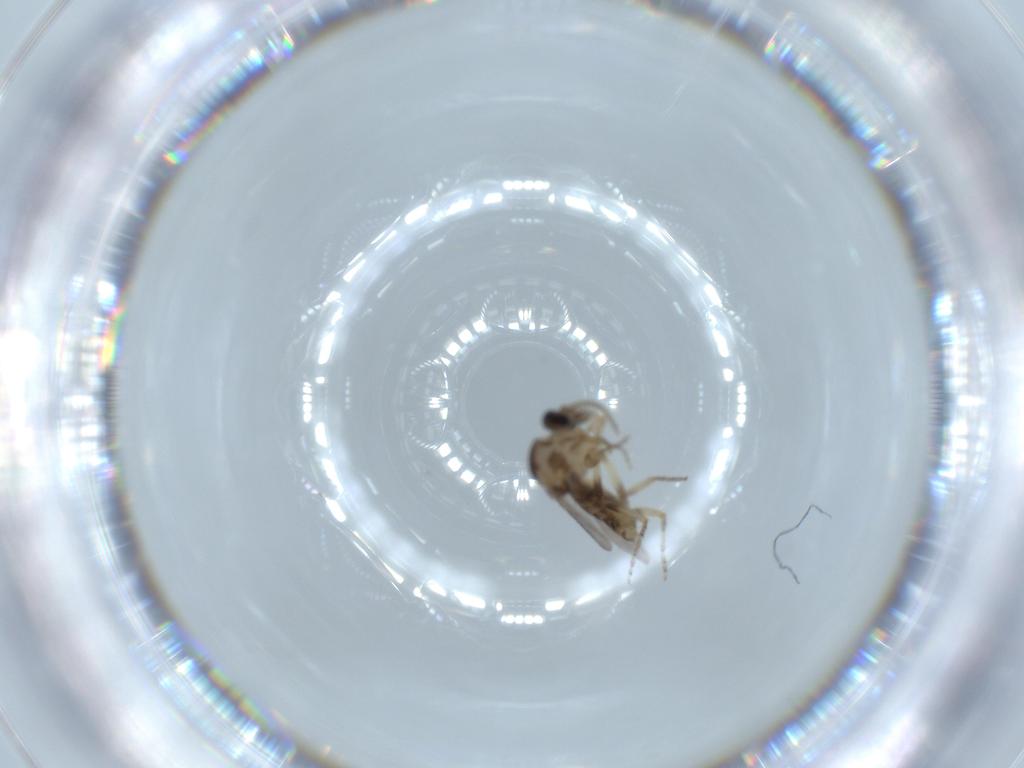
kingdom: Animalia
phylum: Arthropoda
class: Insecta
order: Diptera
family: Ceratopogonidae
